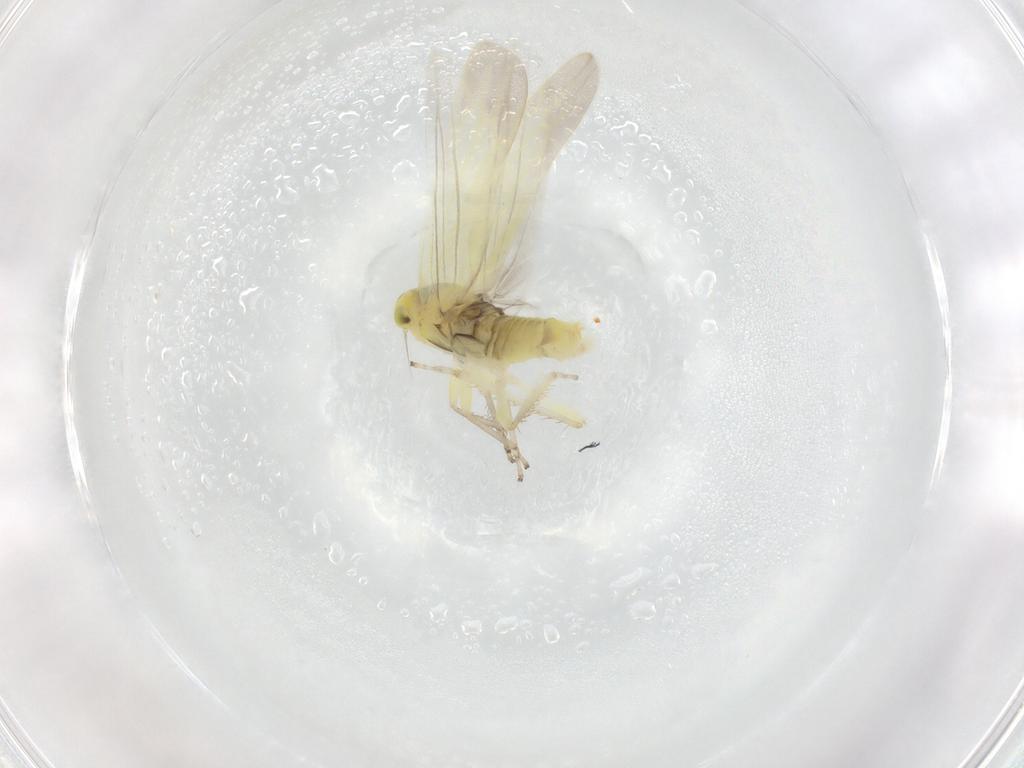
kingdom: Animalia
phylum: Arthropoda
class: Insecta
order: Hemiptera
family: Cicadellidae
